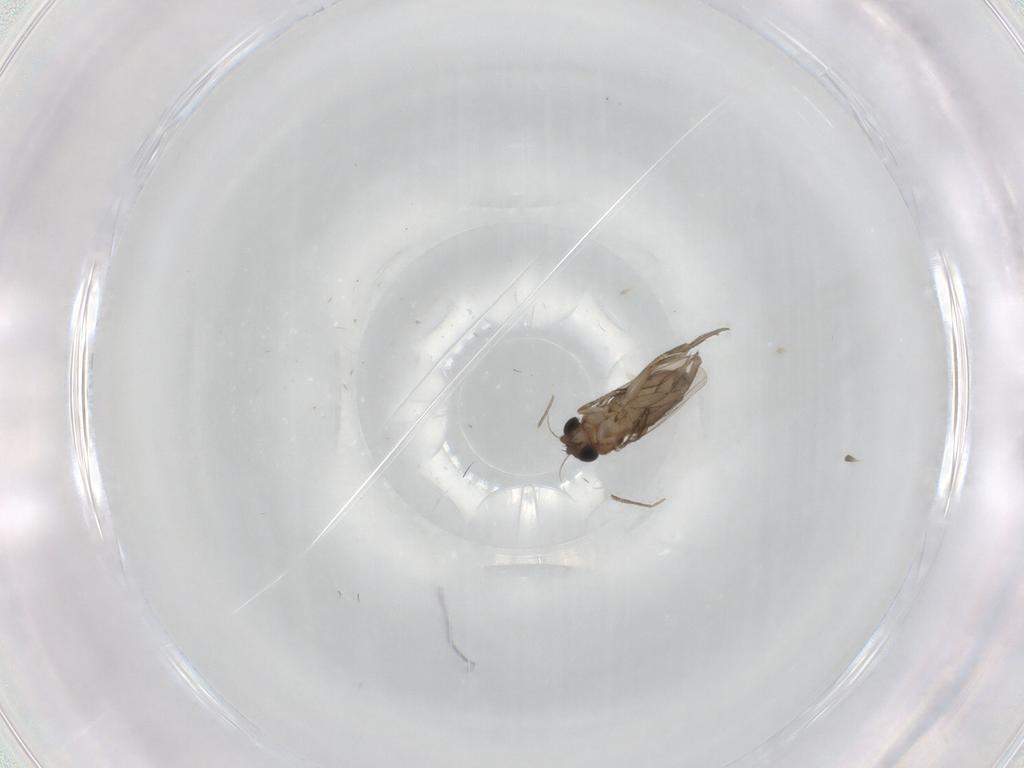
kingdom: Animalia
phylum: Arthropoda
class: Insecta
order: Diptera
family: Phoridae
